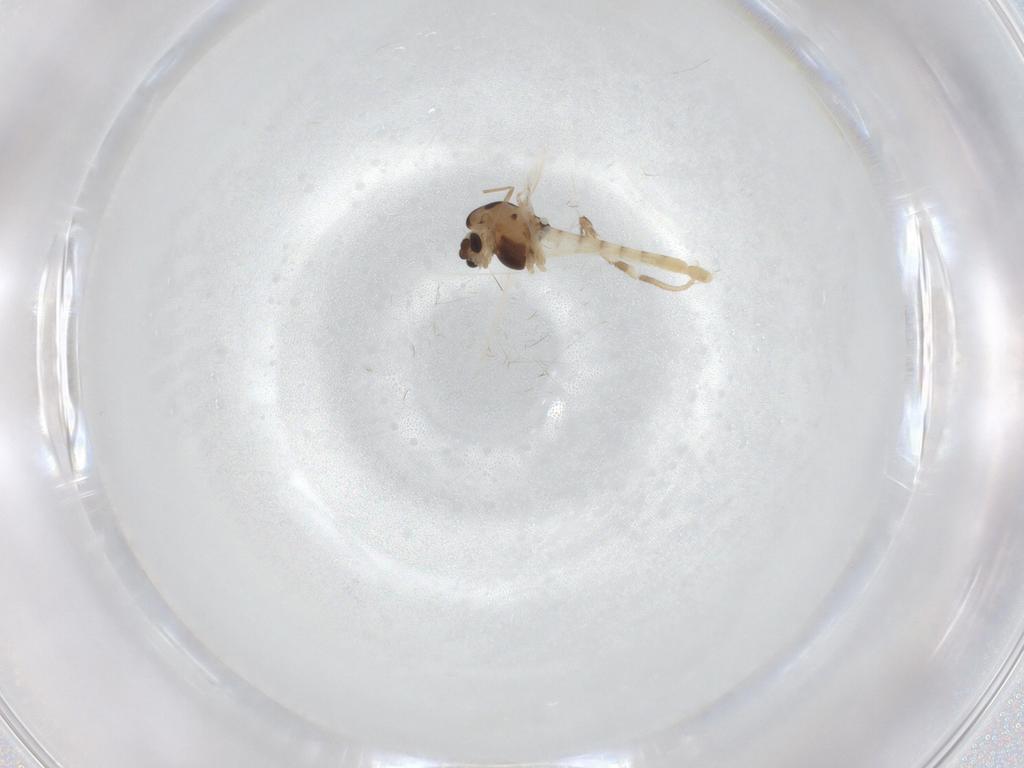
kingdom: Animalia
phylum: Arthropoda
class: Insecta
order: Diptera
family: Chironomidae
